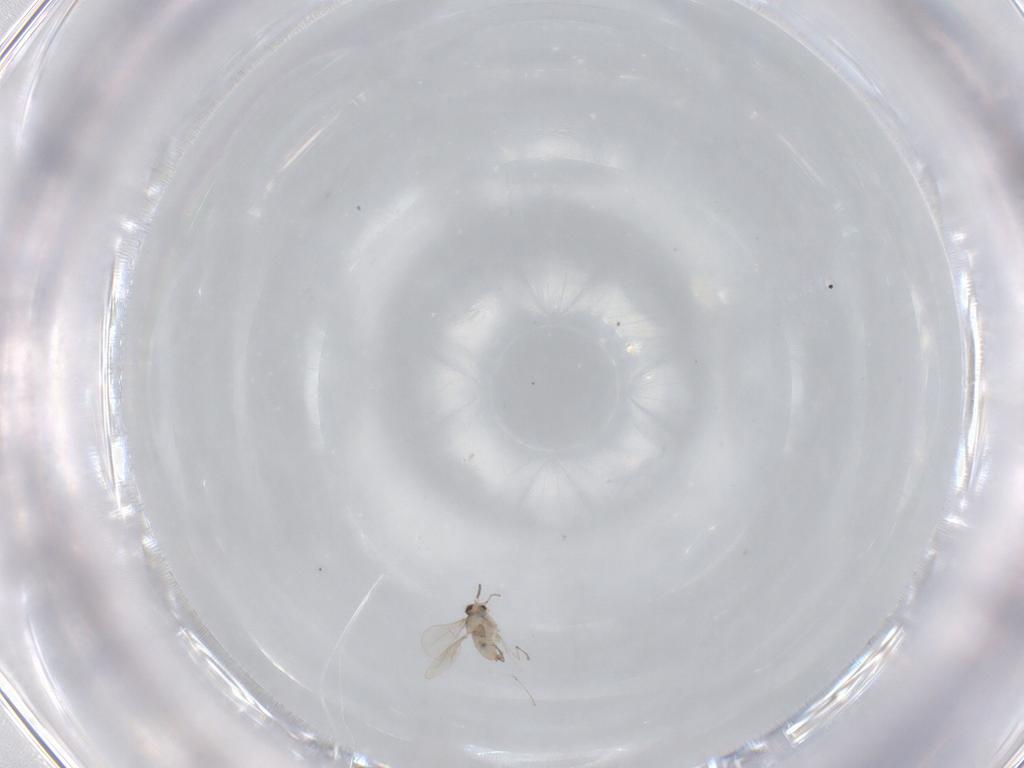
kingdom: Animalia
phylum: Arthropoda
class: Insecta
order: Diptera
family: Cecidomyiidae
